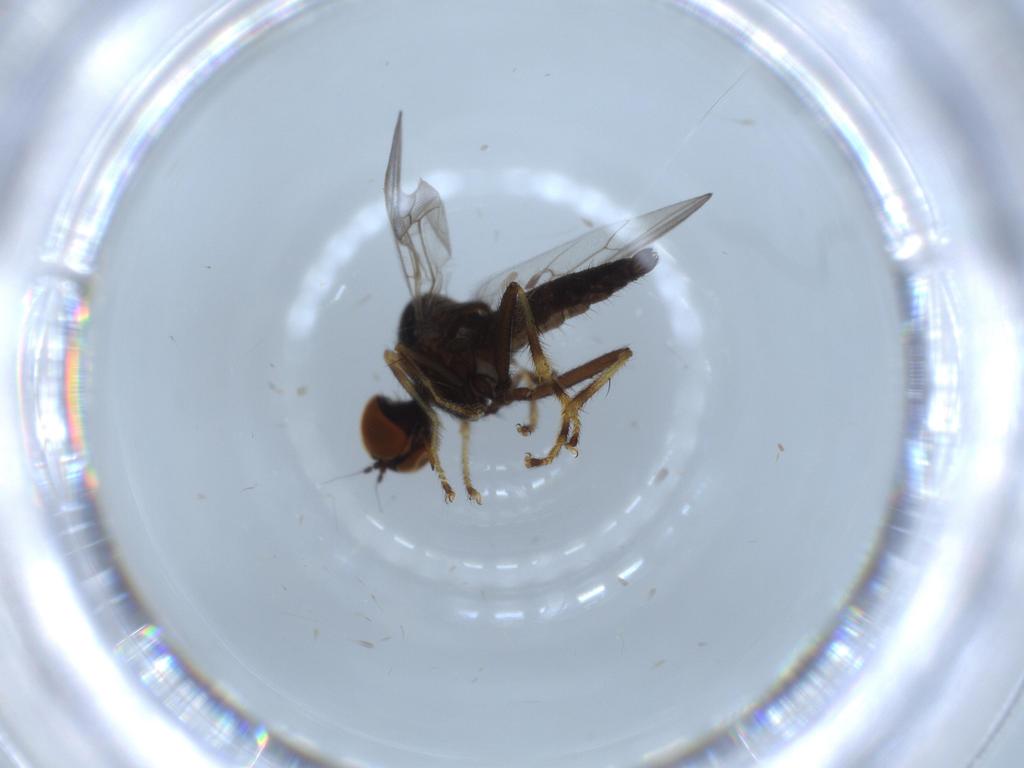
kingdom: Animalia
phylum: Arthropoda
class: Insecta
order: Diptera
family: Hybotidae
